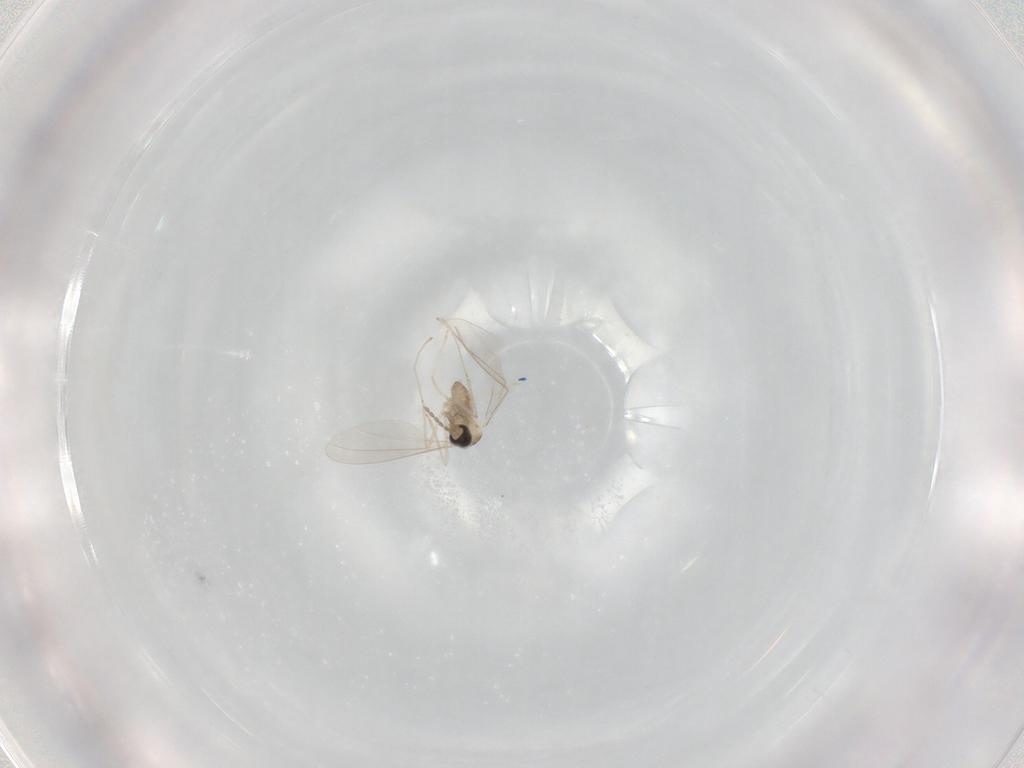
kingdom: Animalia
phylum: Arthropoda
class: Insecta
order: Diptera
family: Cecidomyiidae
